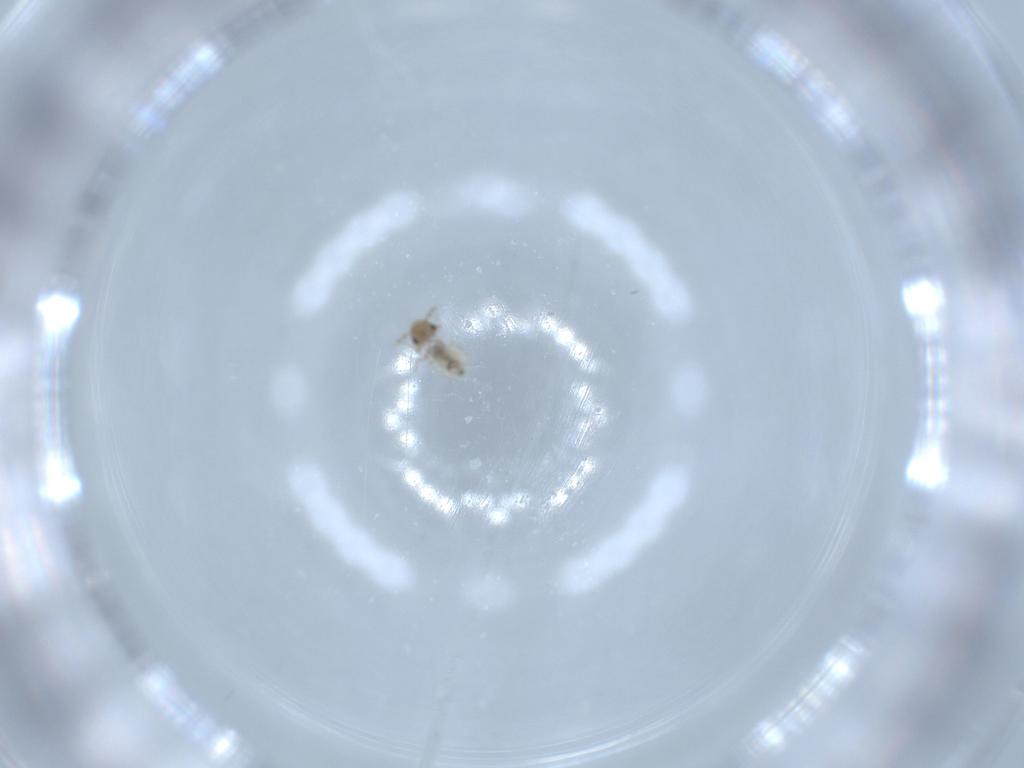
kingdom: Animalia
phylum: Arthropoda
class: Insecta
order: Psocodea
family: Lepidopsocidae
